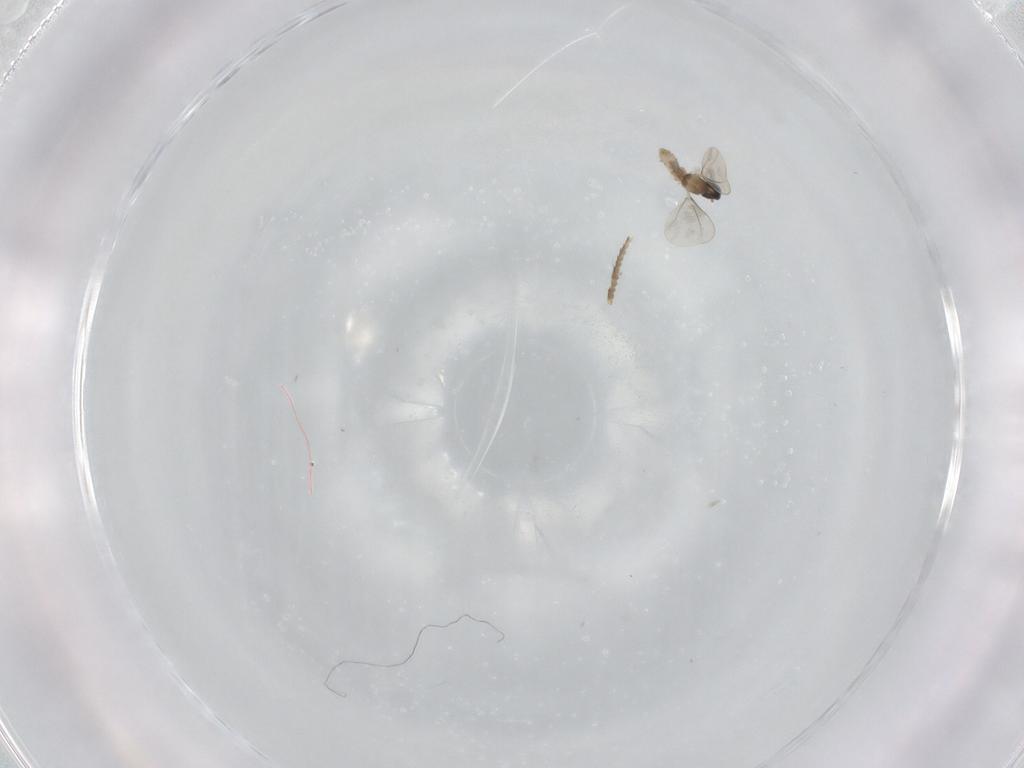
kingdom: Animalia
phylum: Arthropoda
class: Insecta
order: Diptera
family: Cecidomyiidae
